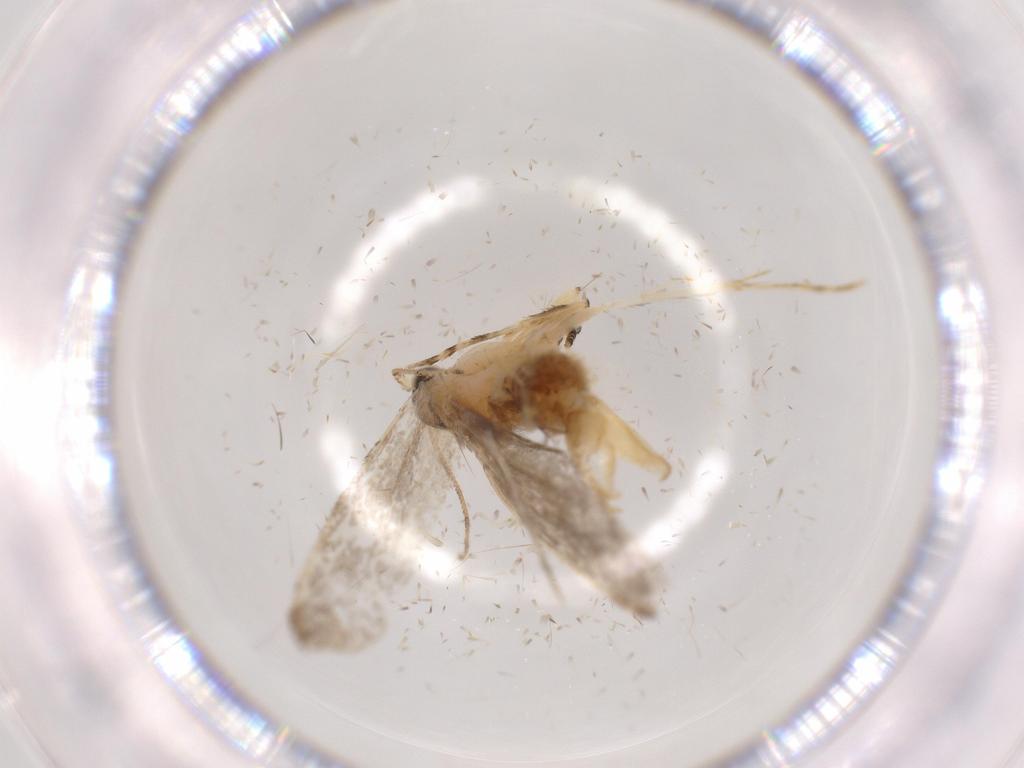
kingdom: Animalia
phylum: Arthropoda
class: Insecta
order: Lepidoptera
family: Tineidae
